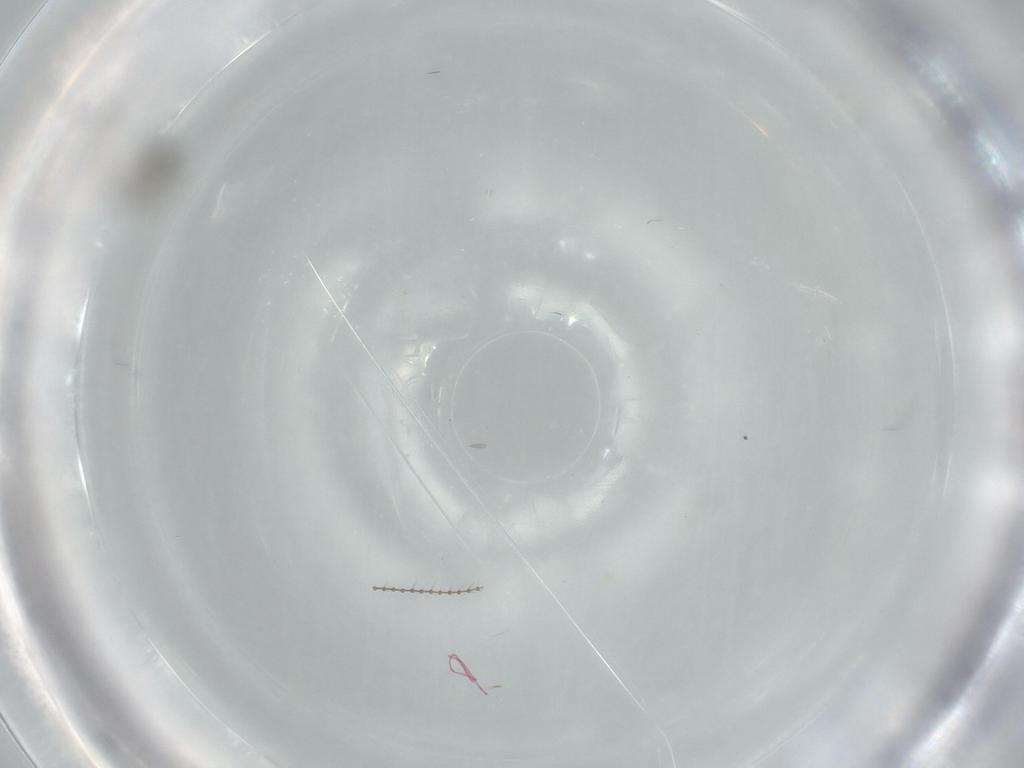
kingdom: Animalia
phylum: Arthropoda
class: Insecta
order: Diptera
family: Cecidomyiidae
